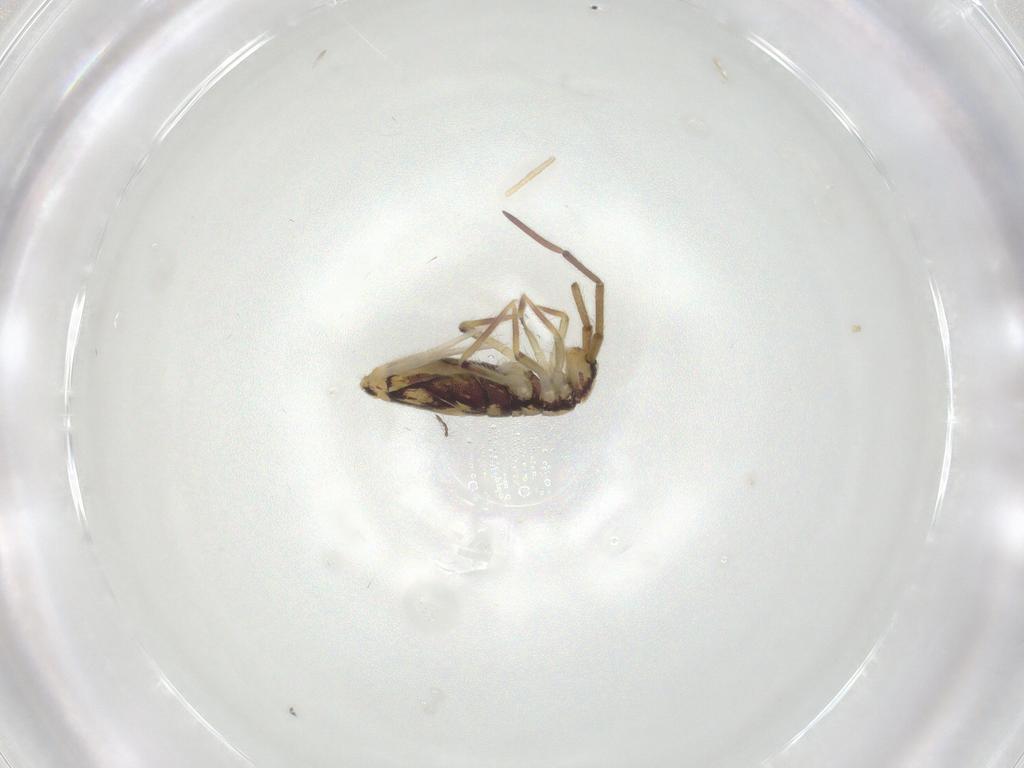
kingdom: Animalia
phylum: Arthropoda
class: Collembola
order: Entomobryomorpha
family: Entomobryidae
